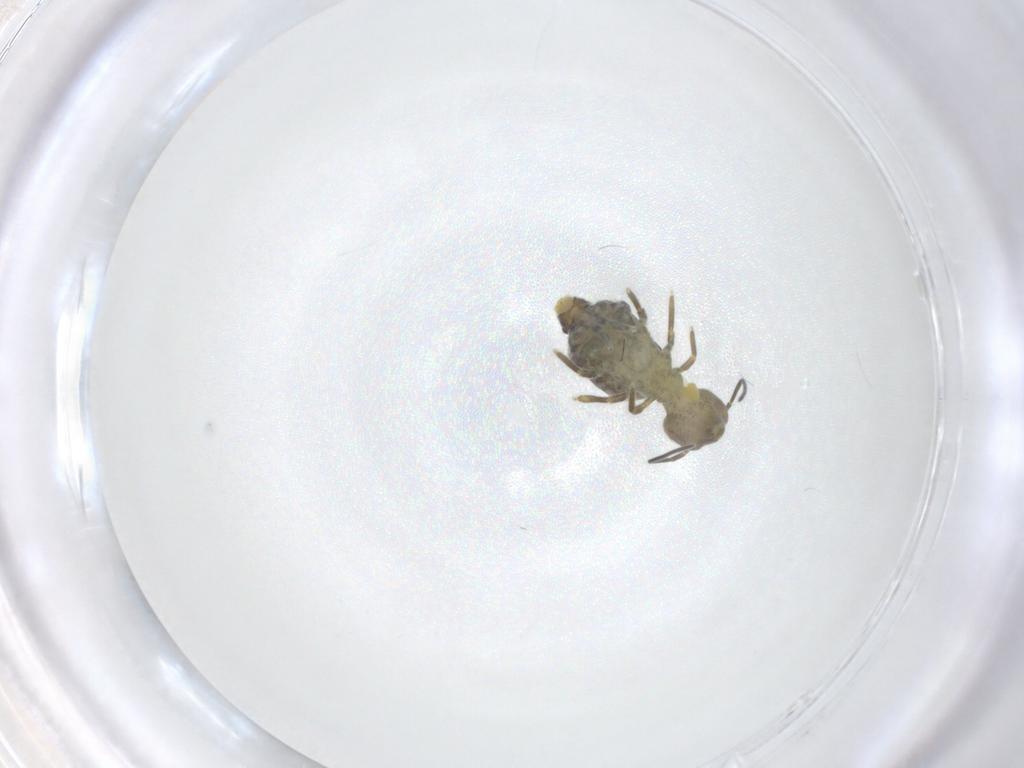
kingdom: Animalia
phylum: Arthropoda
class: Collembola
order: Symphypleona
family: Sminthuridae
